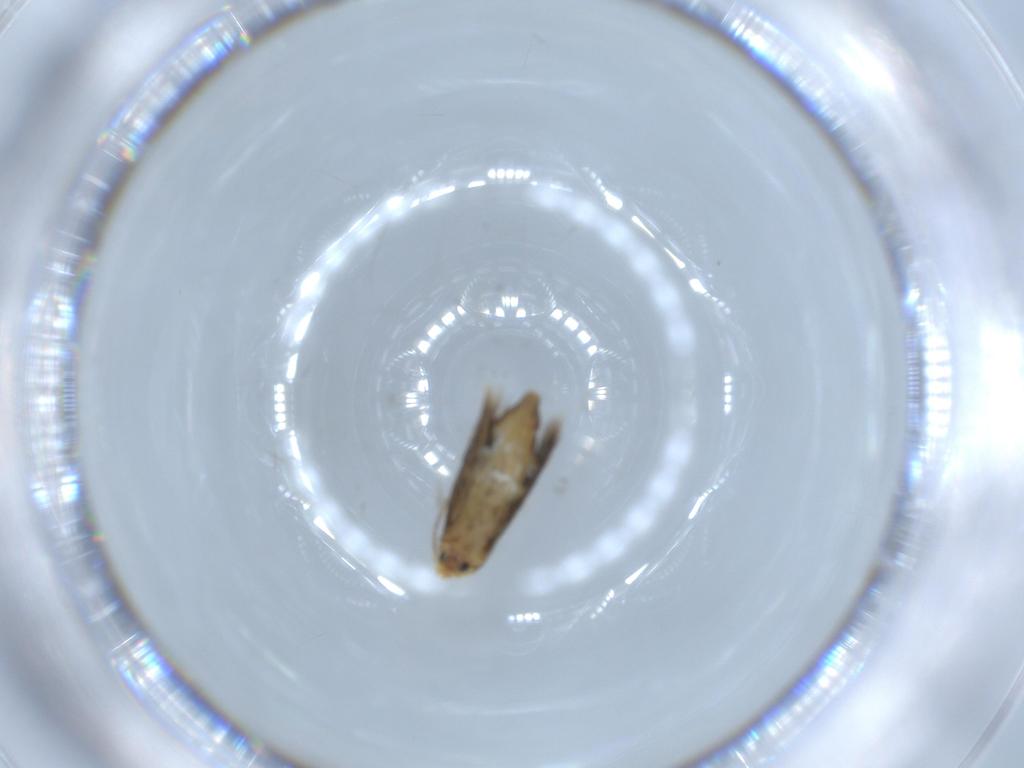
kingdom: Animalia
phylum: Arthropoda
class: Insecta
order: Lepidoptera
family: Nepticulidae
